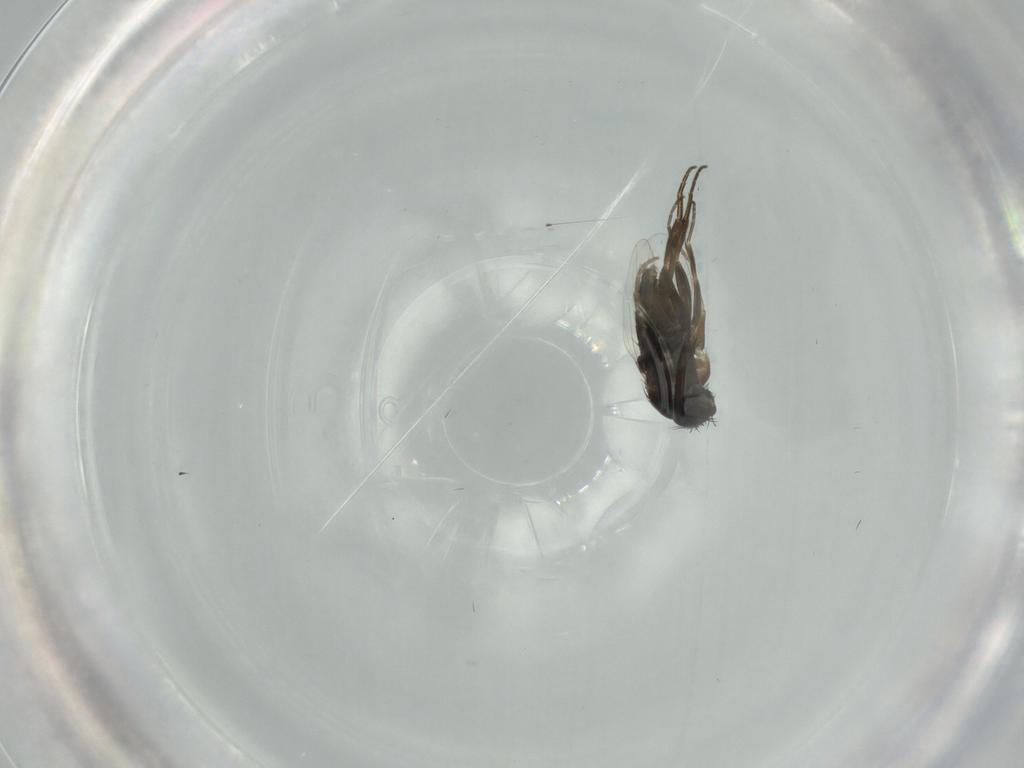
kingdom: Animalia
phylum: Arthropoda
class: Insecta
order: Diptera
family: Phoridae
